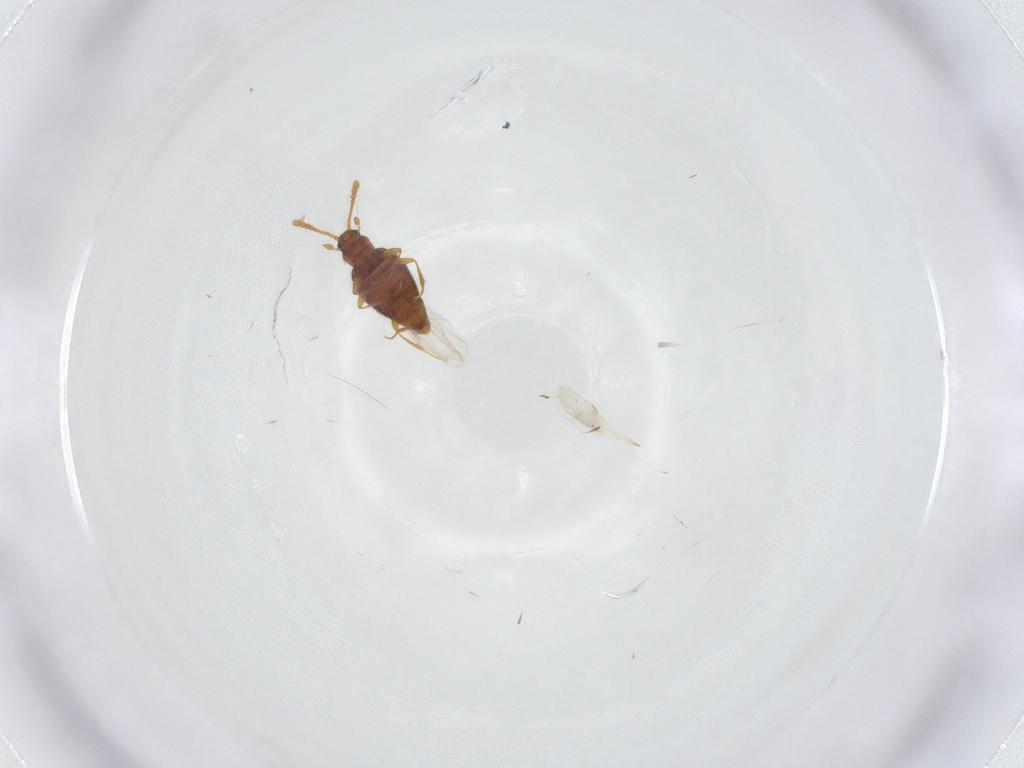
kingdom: Animalia
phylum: Arthropoda
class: Insecta
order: Coleoptera
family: Staphylinidae
